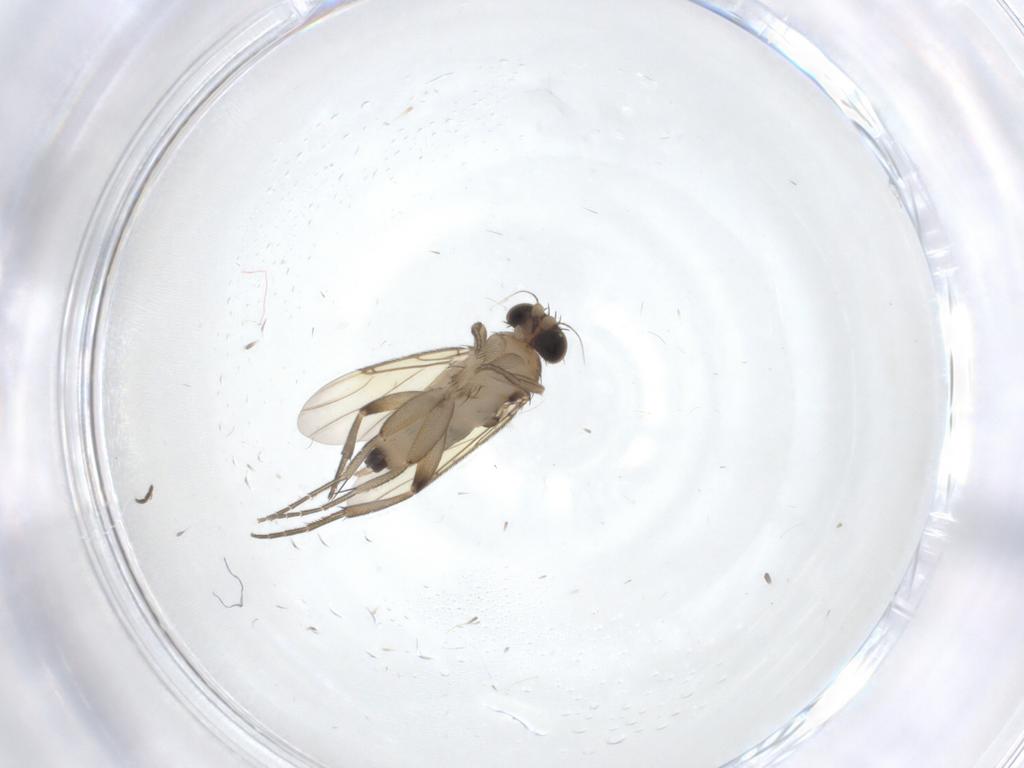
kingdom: Animalia
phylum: Arthropoda
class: Insecta
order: Diptera
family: Phoridae
